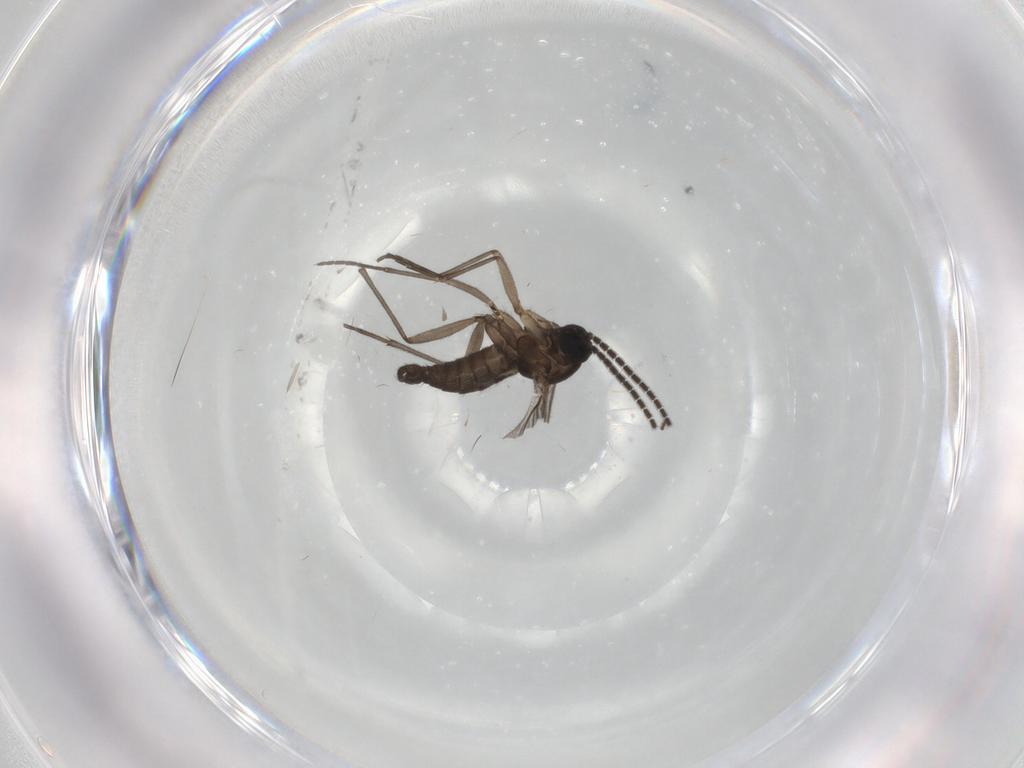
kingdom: Animalia
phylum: Arthropoda
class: Insecta
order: Diptera
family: Sciaridae
